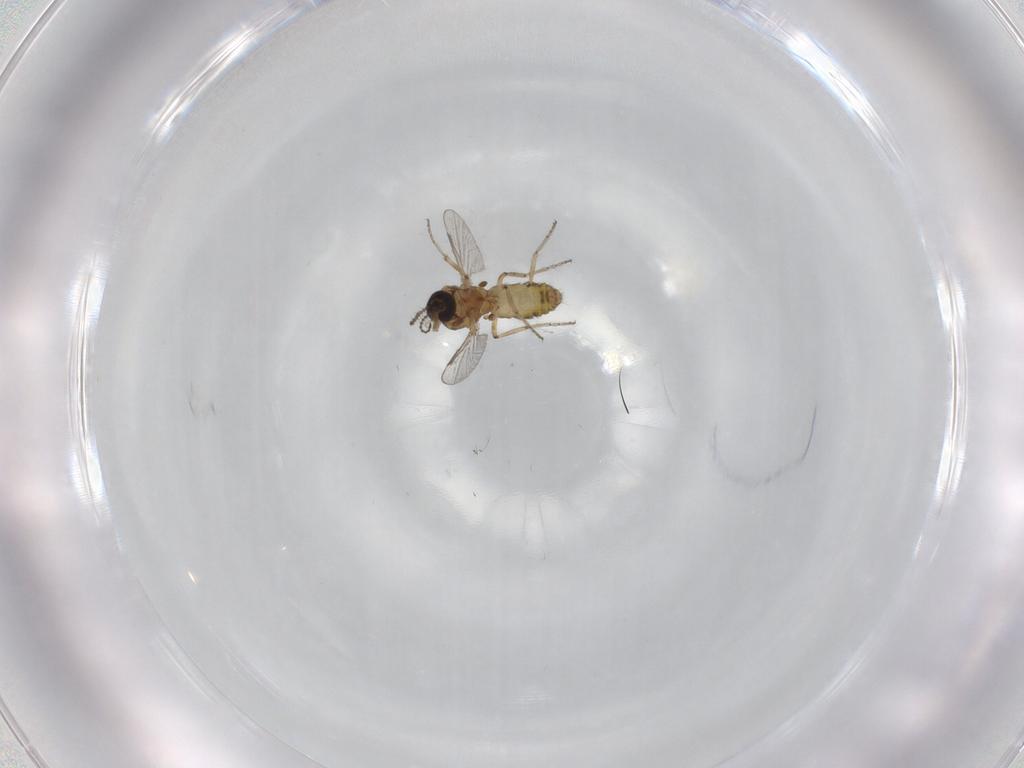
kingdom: Animalia
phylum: Arthropoda
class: Insecta
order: Diptera
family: Ceratopogonidae
